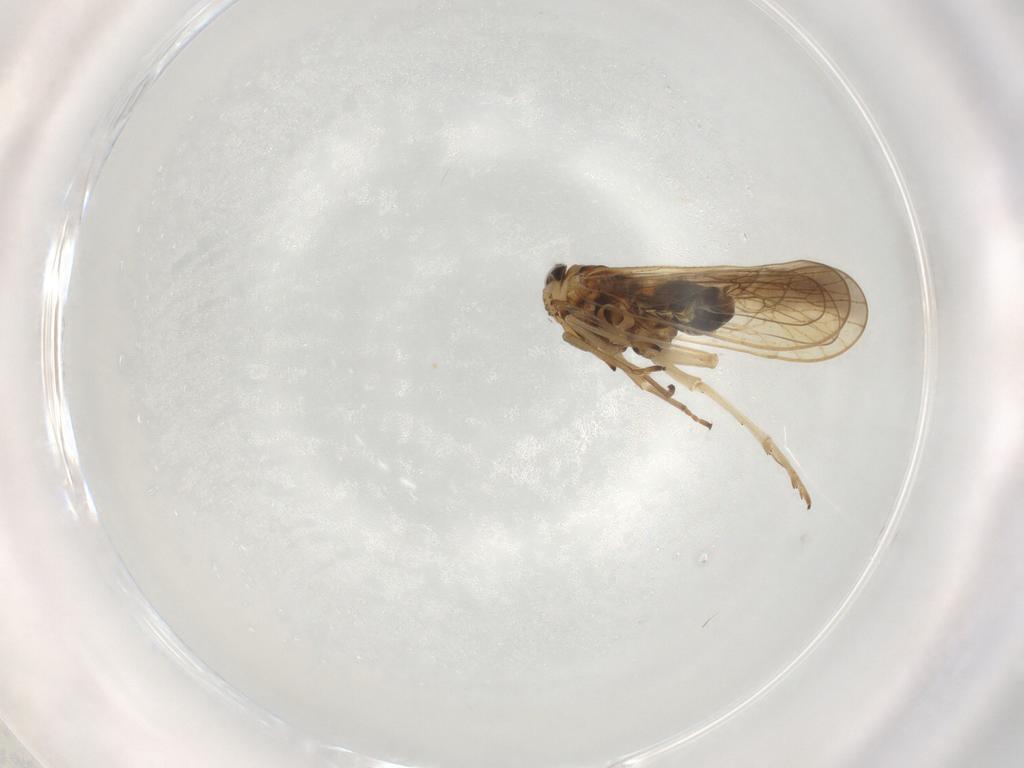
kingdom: Animalia
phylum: Arthropoda
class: Insecta
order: Hemiptera
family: Delphacidae
